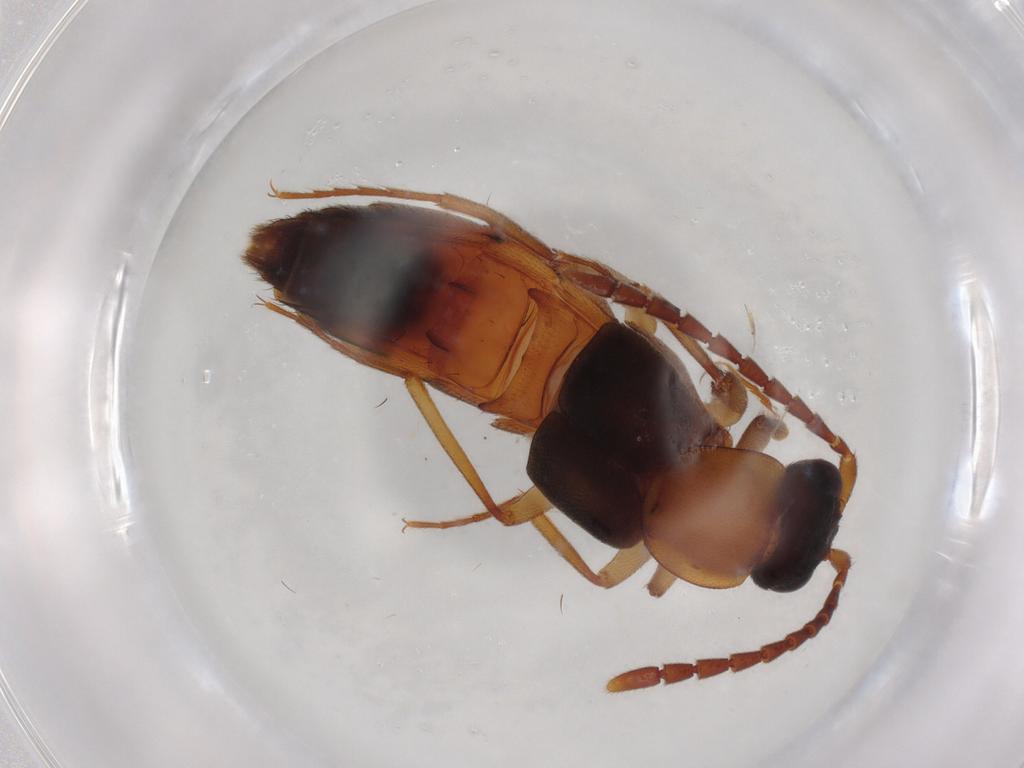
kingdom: Animalia
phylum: Arthropoda
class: Insecta
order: Coleoptera
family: Staphylinidae
